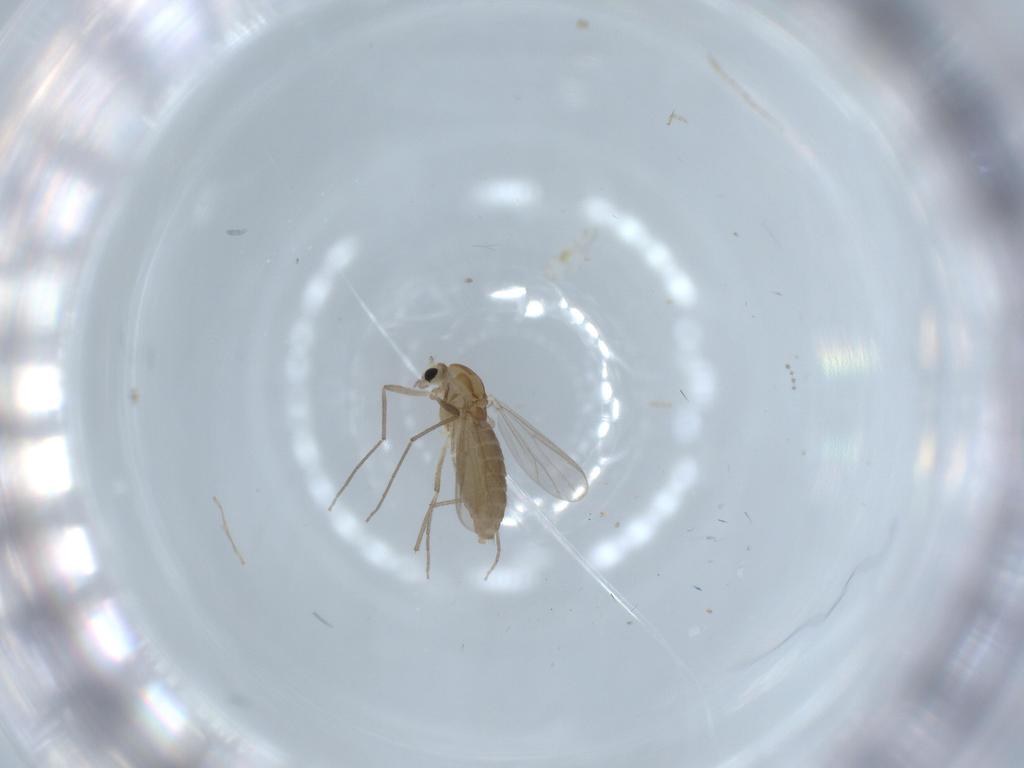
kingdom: Animalia
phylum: Arthropoda
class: Insecta
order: Diptera
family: Chironomidae
